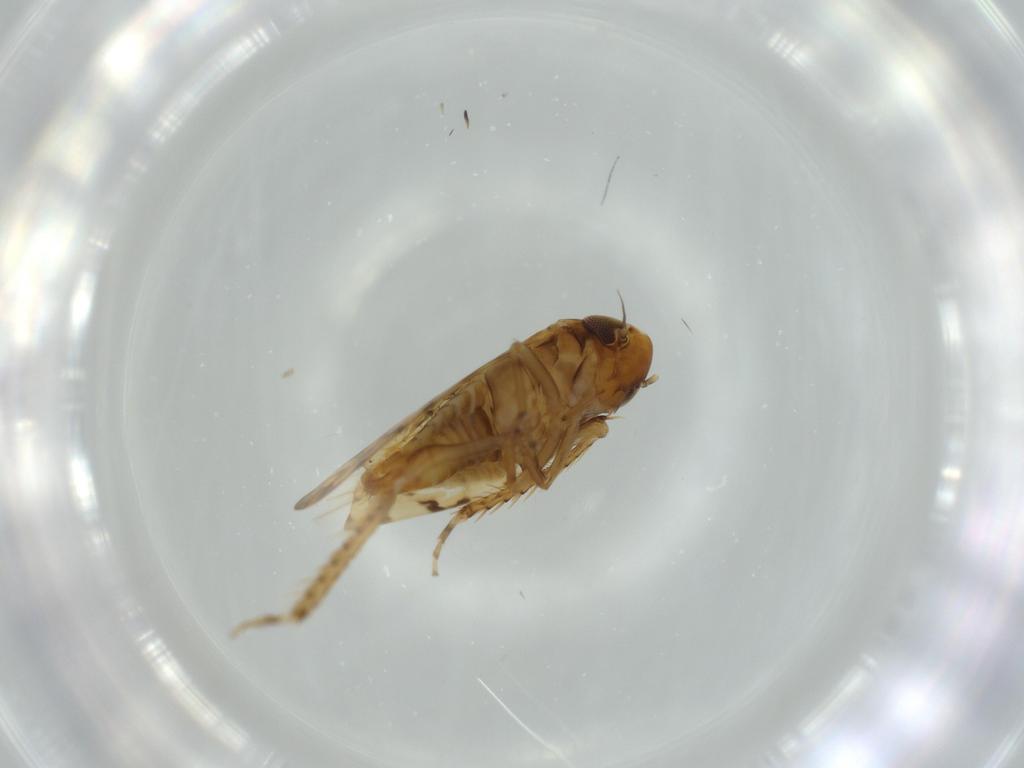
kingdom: Animalia
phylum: Arthropoda
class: Insecta
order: Hemiptera
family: Cicadellidae
